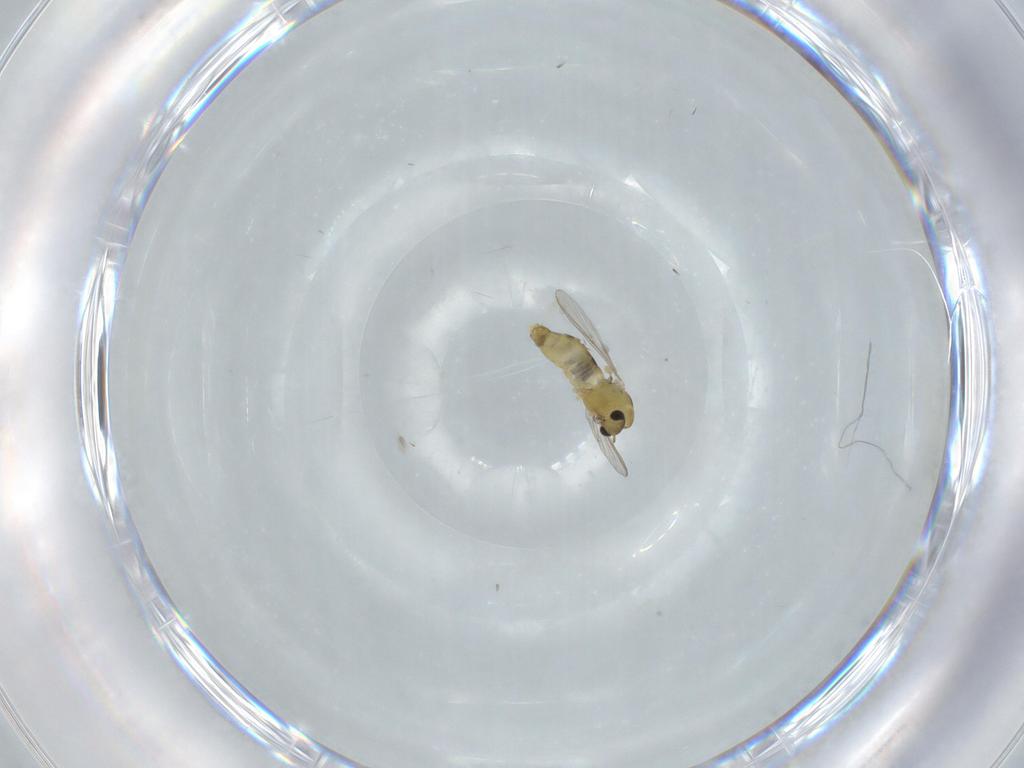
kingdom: Animalia
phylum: Arthropoda
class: Insecta
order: Diptera
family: Chironomidae
